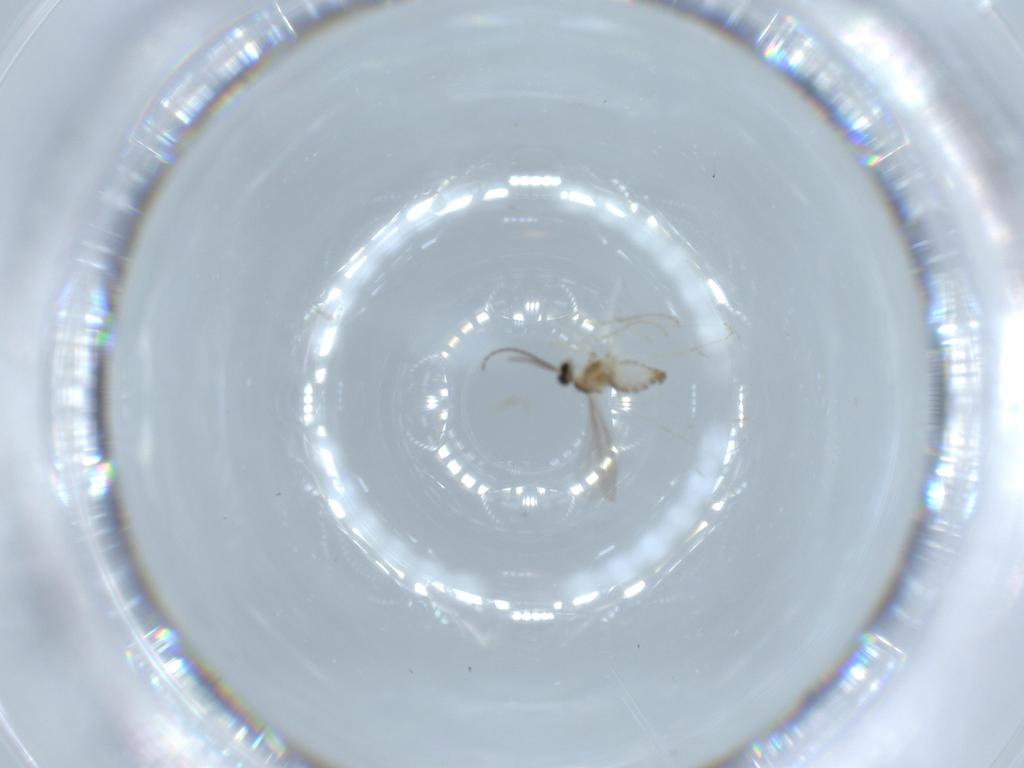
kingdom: Animalia
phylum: Arthropoda
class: Insecta
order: Diptera
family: Cecidomyiidae
